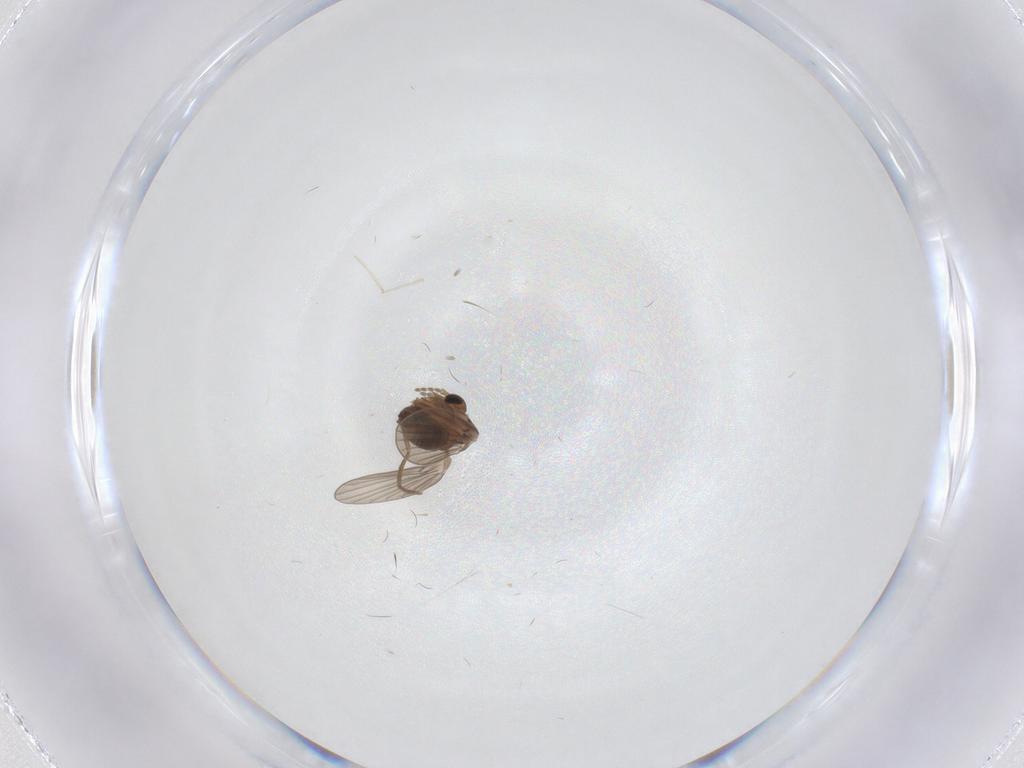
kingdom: Animalia
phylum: Arthropoda
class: Insecta
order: Diptera
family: Cecidomyiidae
